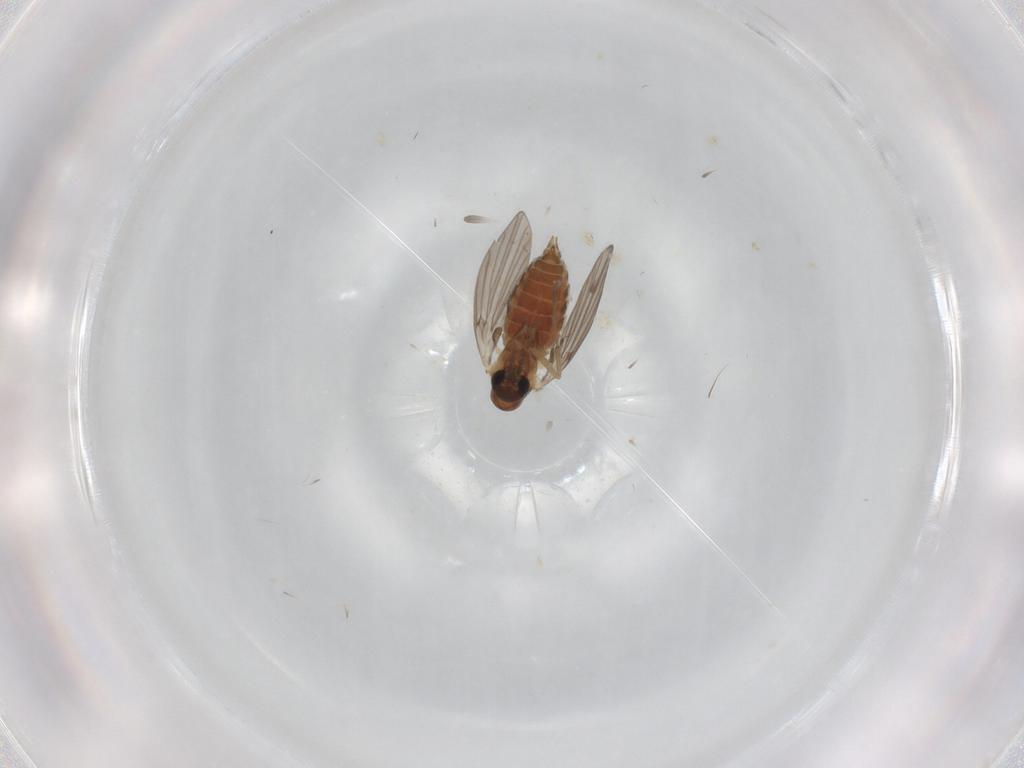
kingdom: Animalia
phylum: Arthropoda
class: Insecta
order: Diptera
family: Cecidomyiidae
